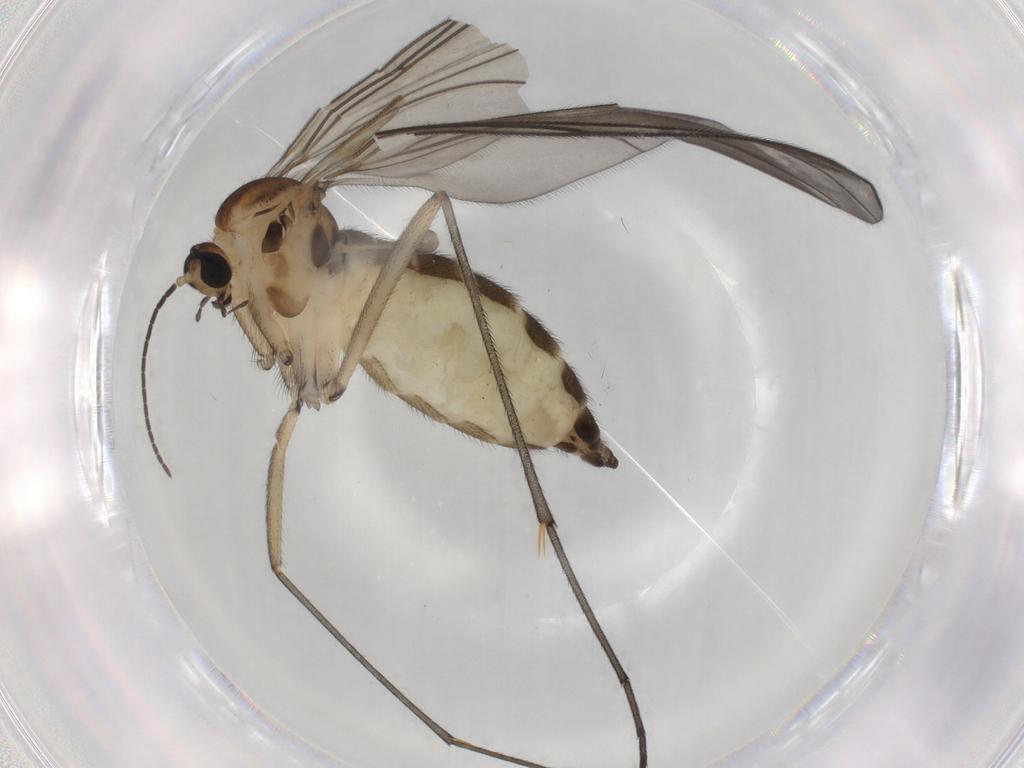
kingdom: Animalia
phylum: Arthropoda
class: Insecta
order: Diptera
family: Sciaridae
